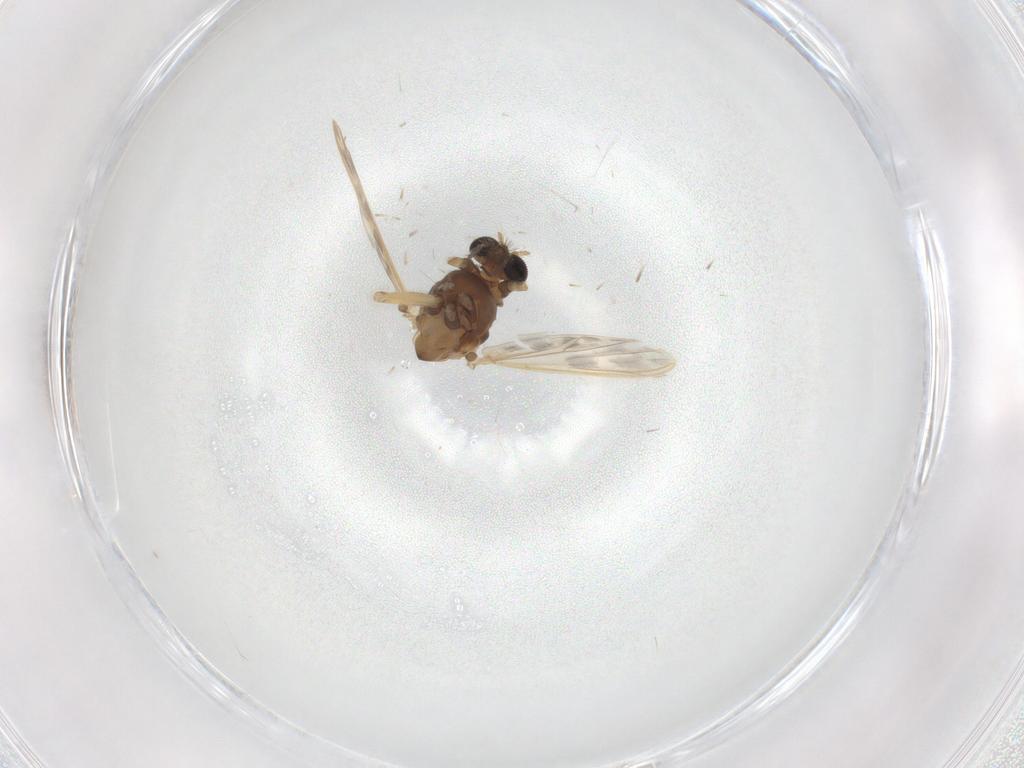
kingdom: Animalia
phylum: Arthropoda
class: Insecta
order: Diptera
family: Chironomidae
